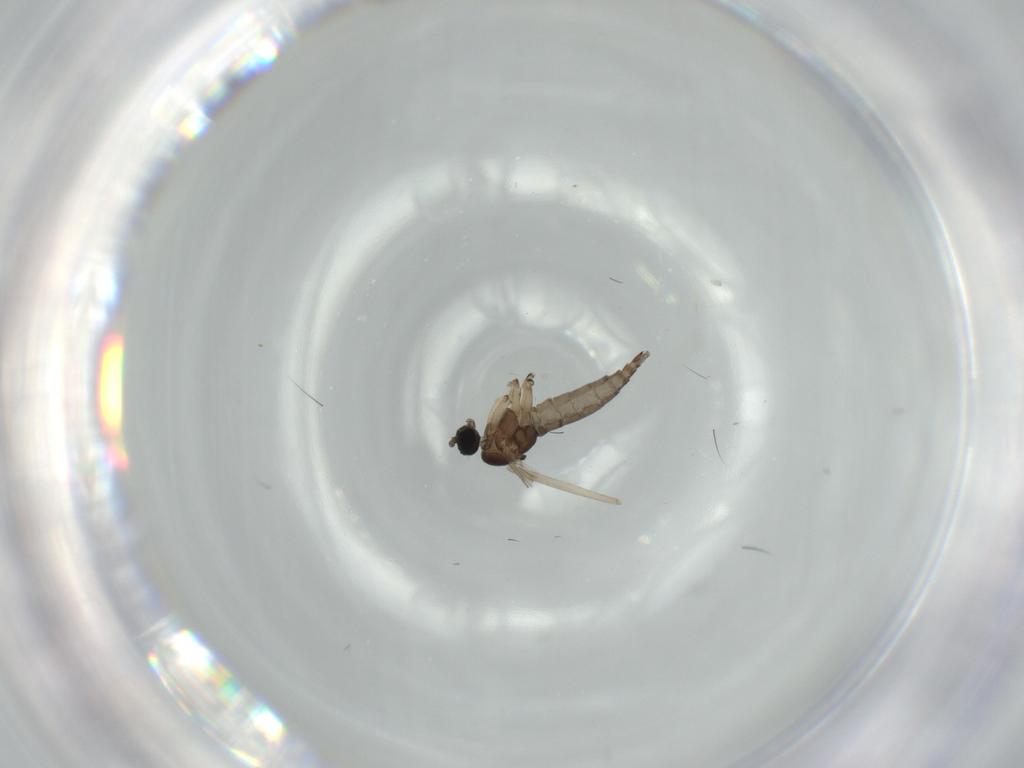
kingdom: Animalia
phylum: Arthropoda
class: Insecta
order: Diptera
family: Sciaridae
